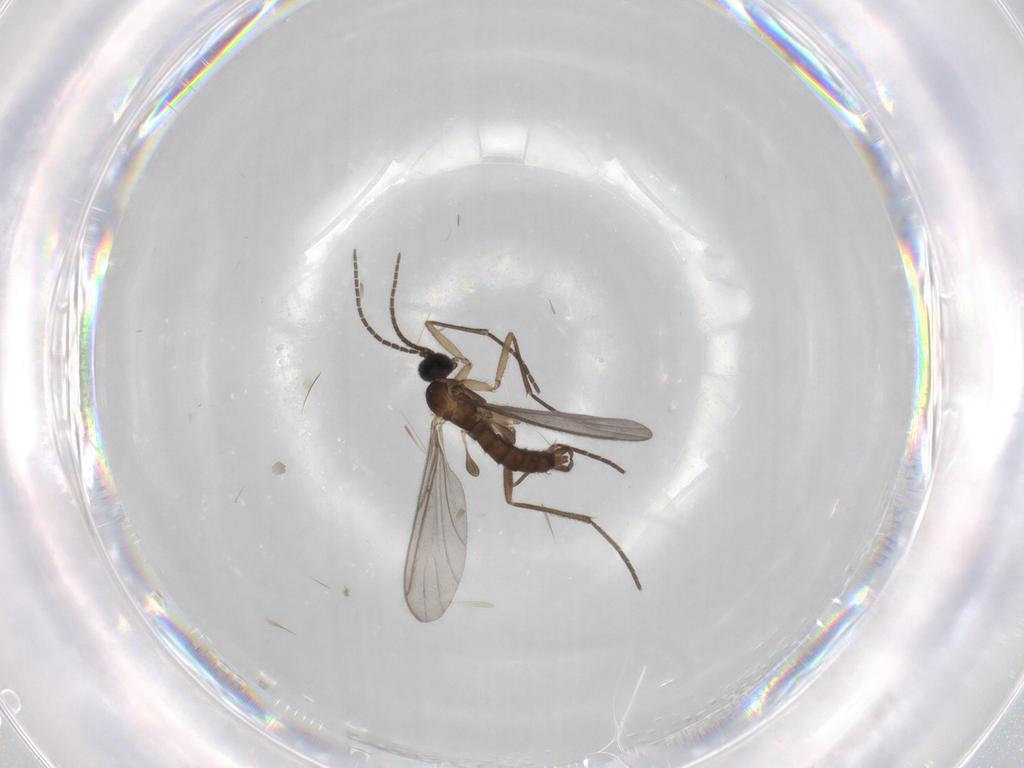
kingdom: Animalia
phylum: Arthropoda
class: Insecta
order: Diptera
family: Sciaridae
